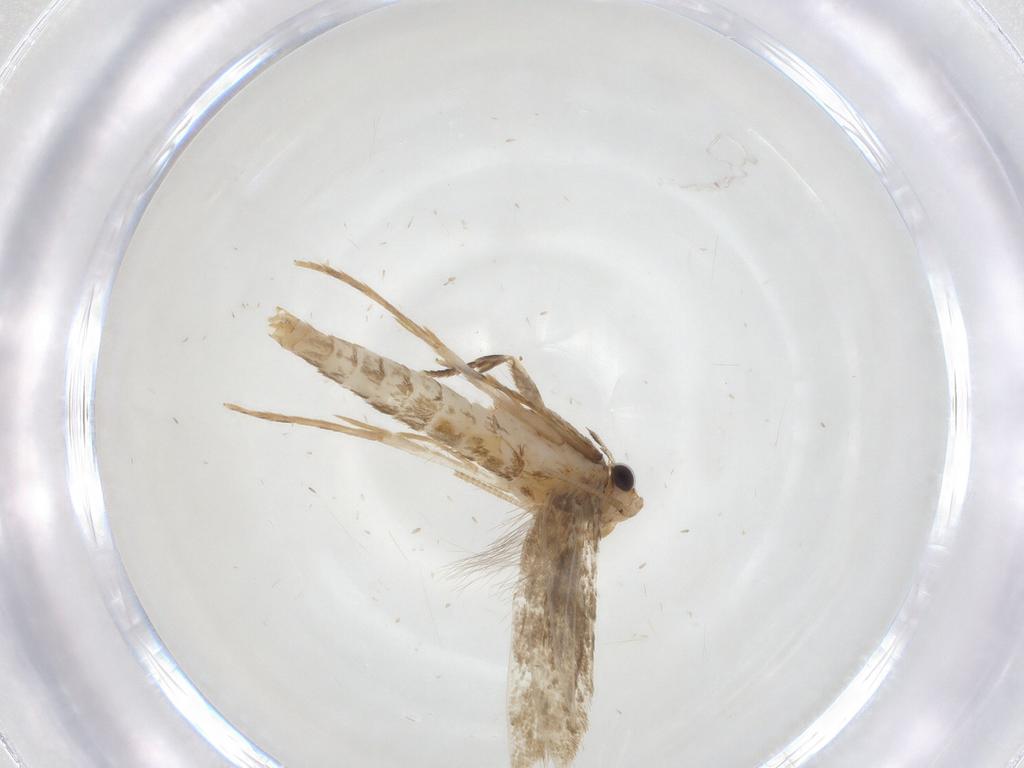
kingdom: Animalia
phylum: Arthropoda
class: Insecta
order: Lepidoptera
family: Tineidae
